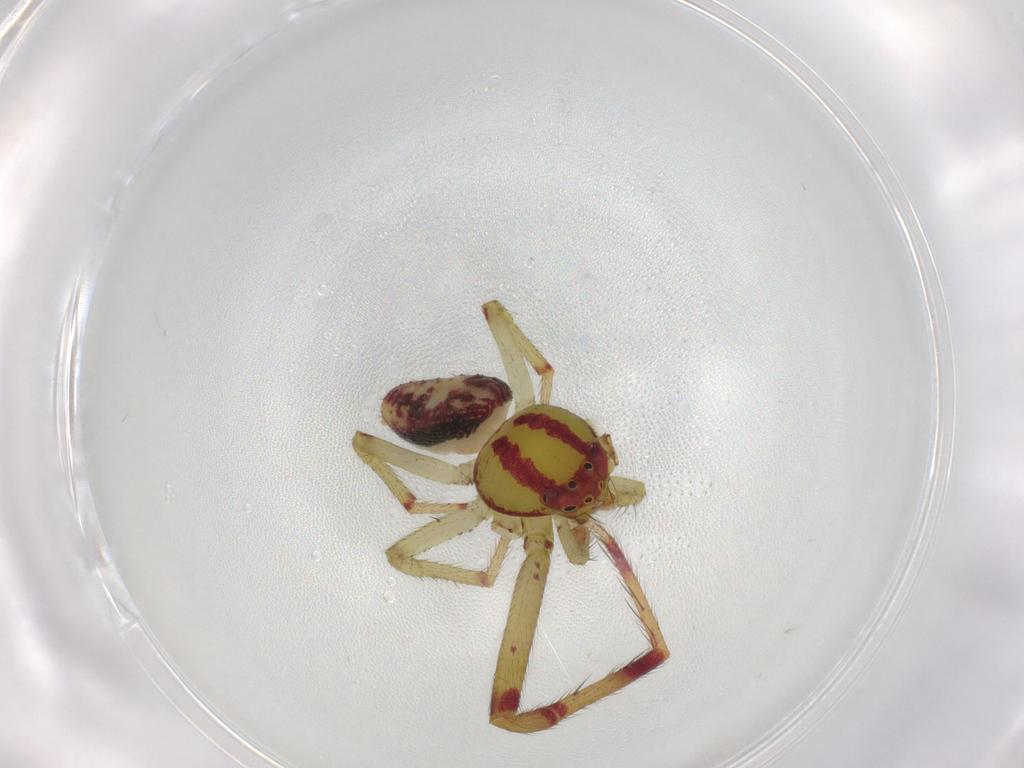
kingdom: Animalia
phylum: Arthropoda
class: Arachnida
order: Araneae
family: Thomisidae
